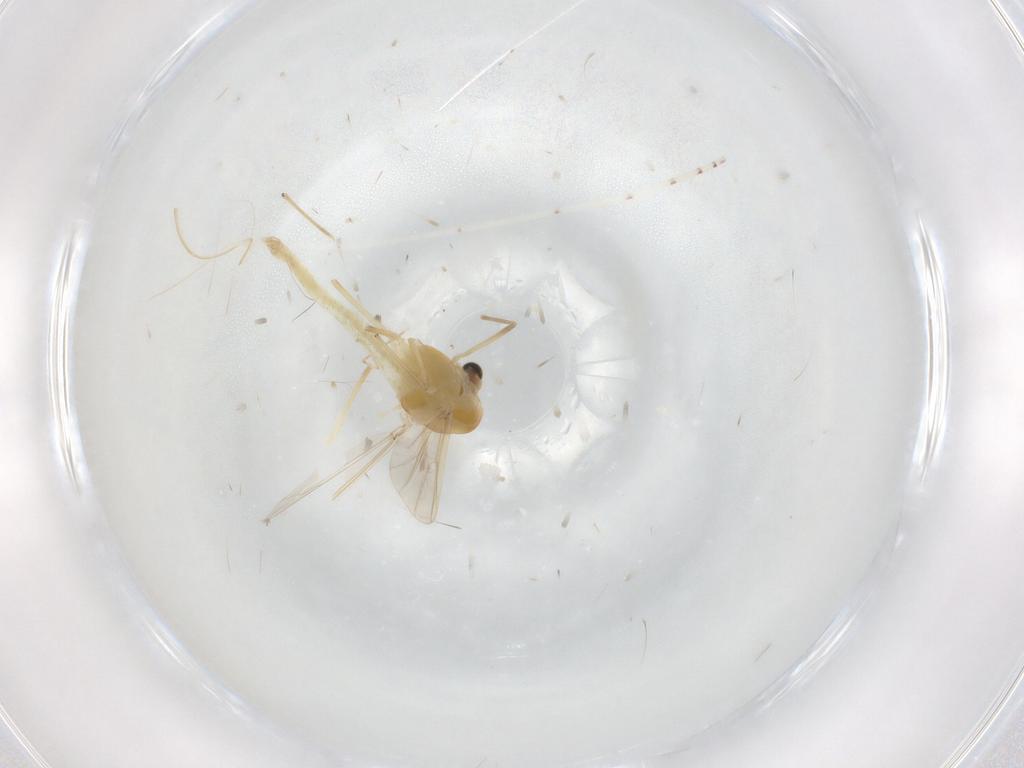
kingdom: Animalia
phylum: Arthropoda
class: Insecta
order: Diptera
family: Chironomidae
